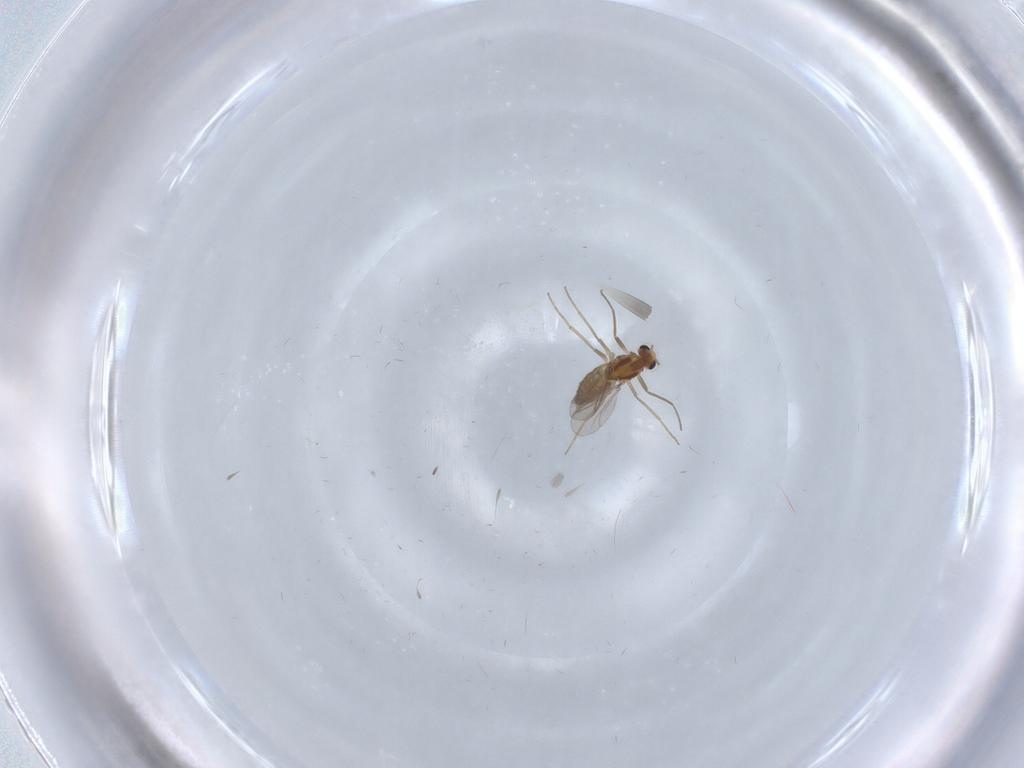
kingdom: Animalia
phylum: Arthropoda
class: Insecta
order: Diptera
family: Chironomidae
